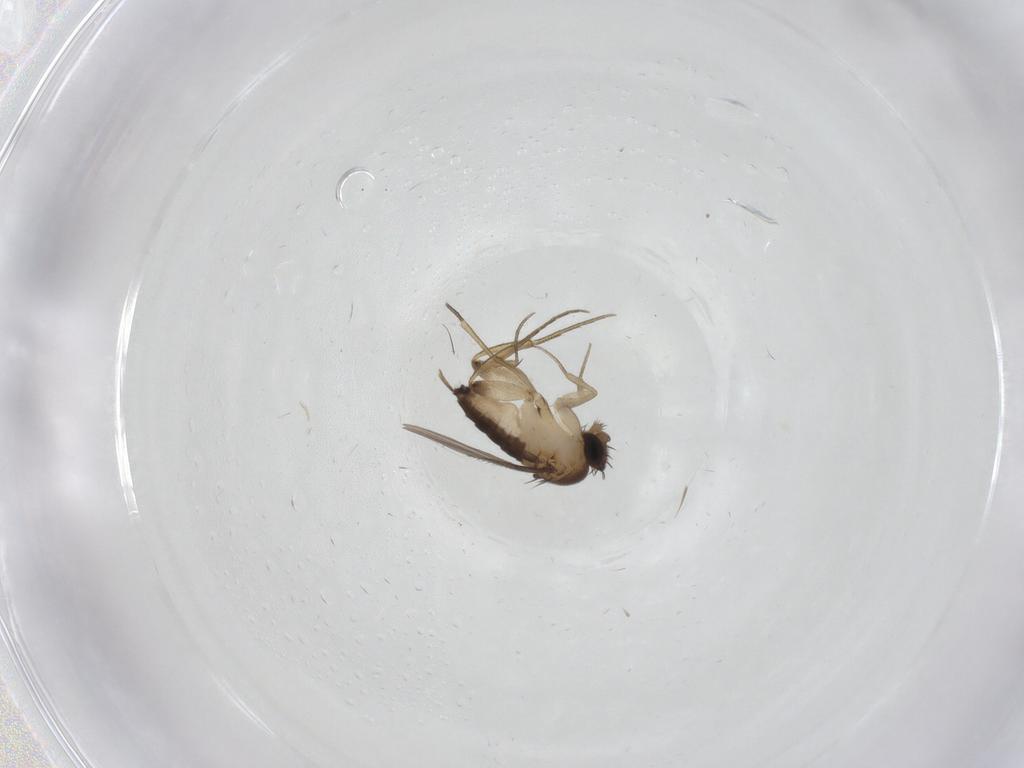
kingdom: Animalia
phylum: Arthropoda
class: Insecta
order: Diptera
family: Phoridae
